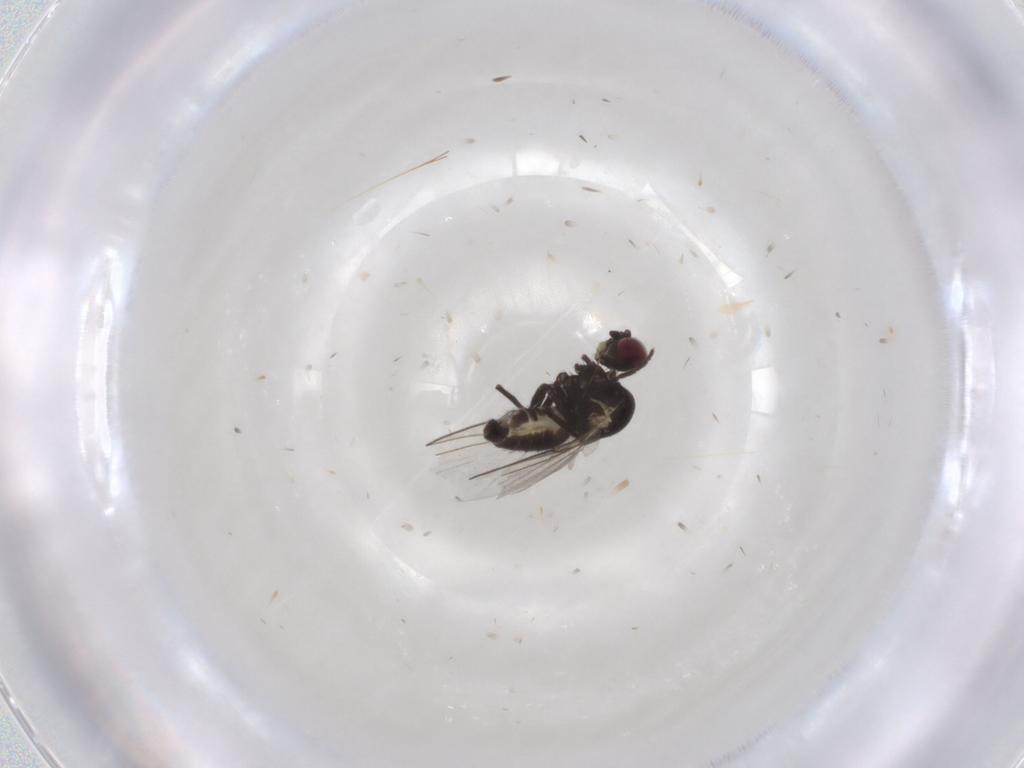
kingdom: Animalia
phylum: Arthropoda
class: Insecta
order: Diptera
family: Agromyzidae
